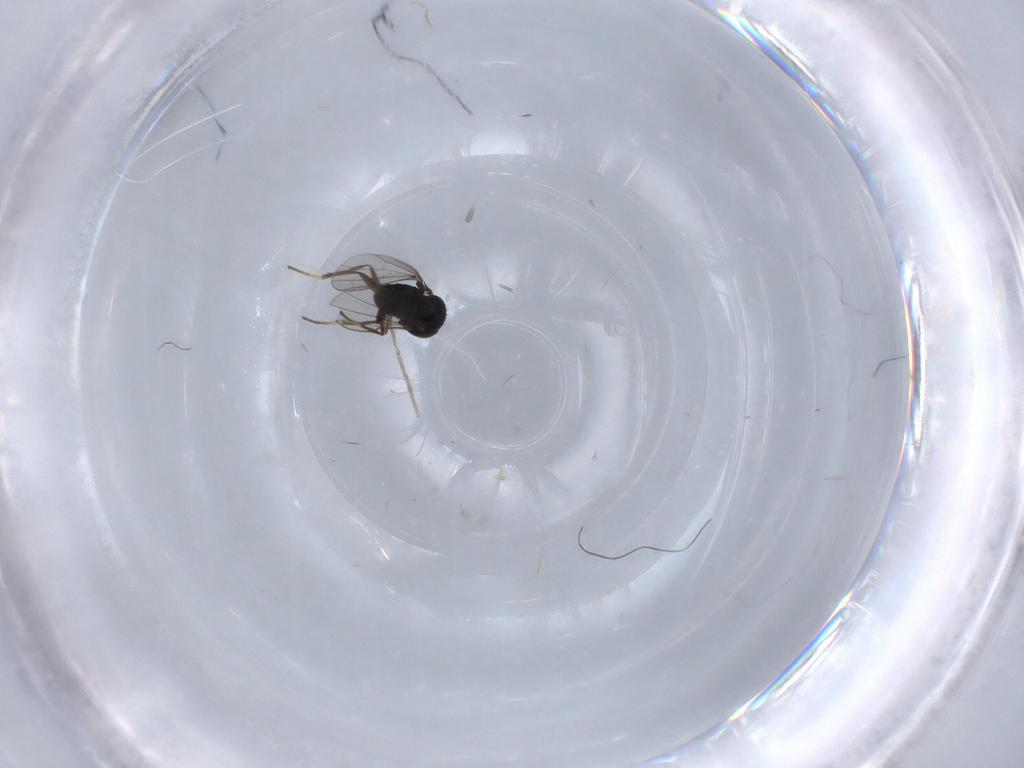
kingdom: Animalia
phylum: Arthropoda
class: Insecta
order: Diptera
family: Dolichopodidae
